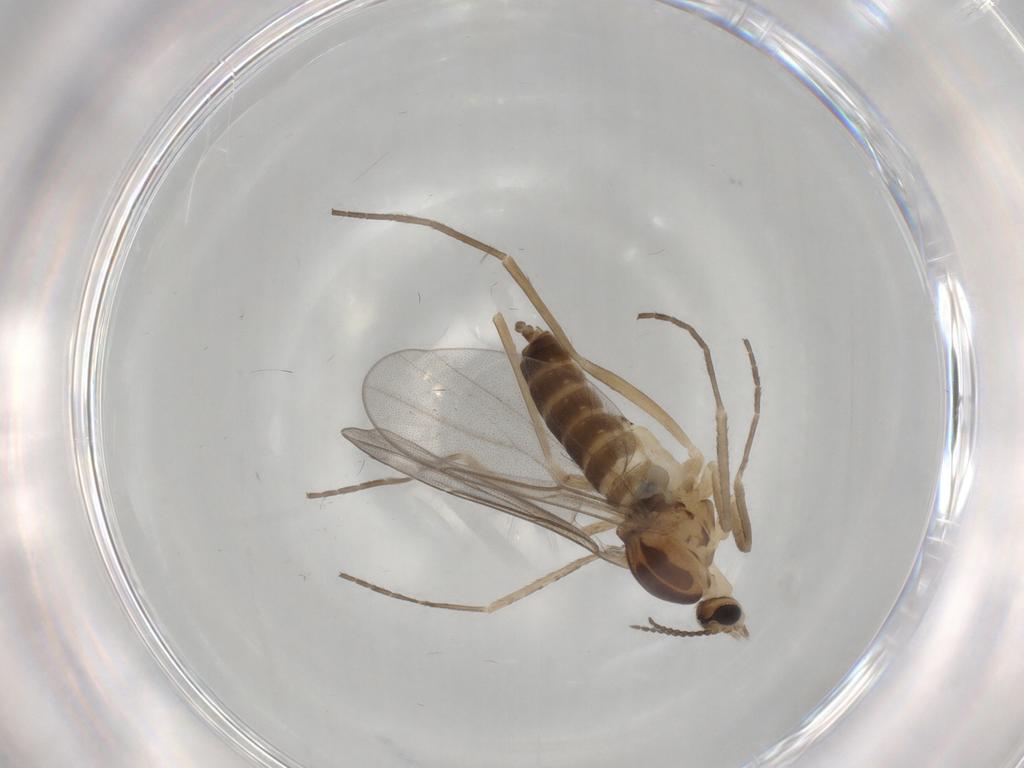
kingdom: Animalia
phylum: Arthropoda
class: Insecta
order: Diptera
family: Cecidomyiidae
